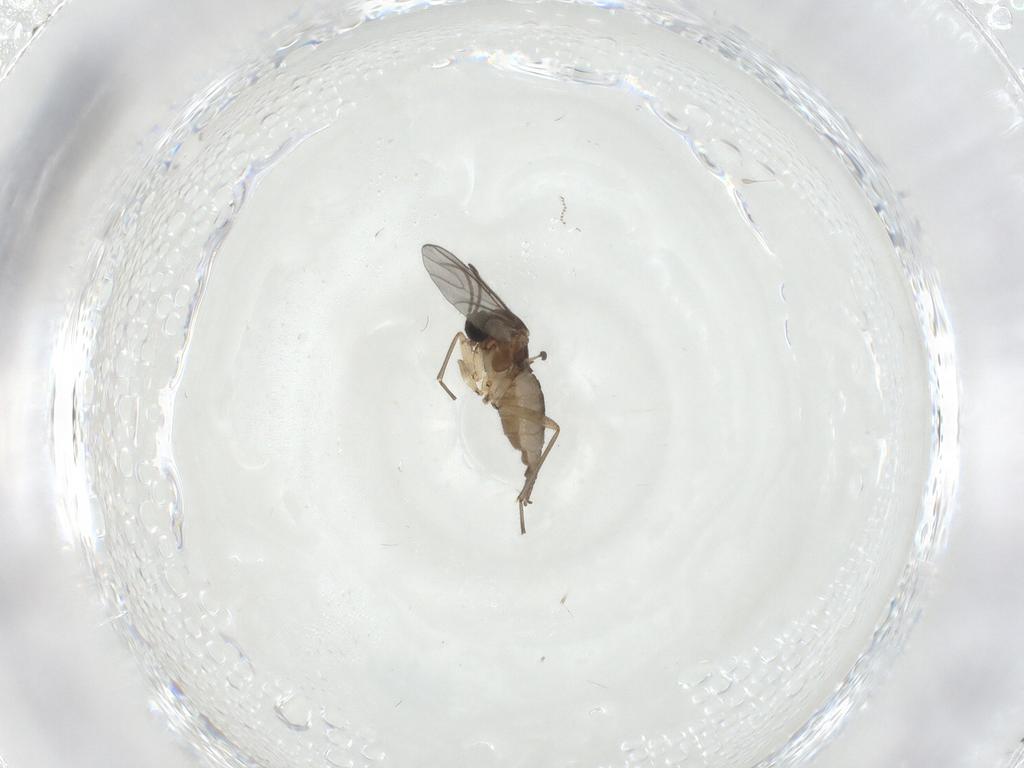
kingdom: Animalia
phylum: Arthropoda
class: Insecta
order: Diptera
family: Sciaridae
